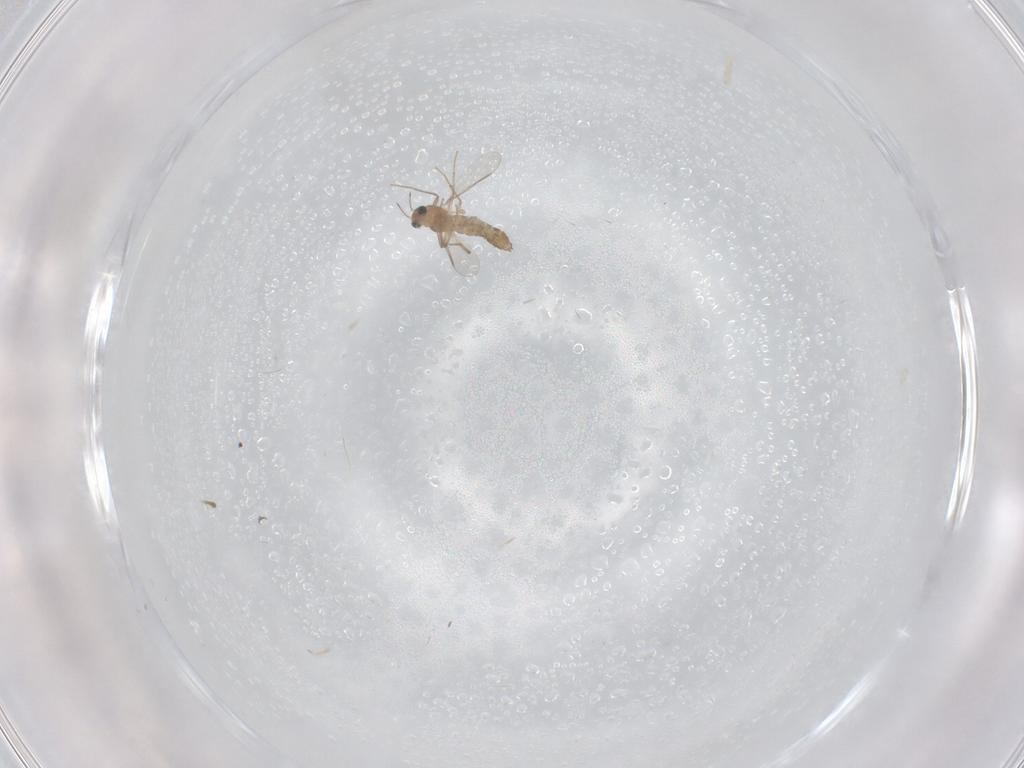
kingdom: Animalia
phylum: Arthropoda
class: Insecta
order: Diptera
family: Chironomidae
